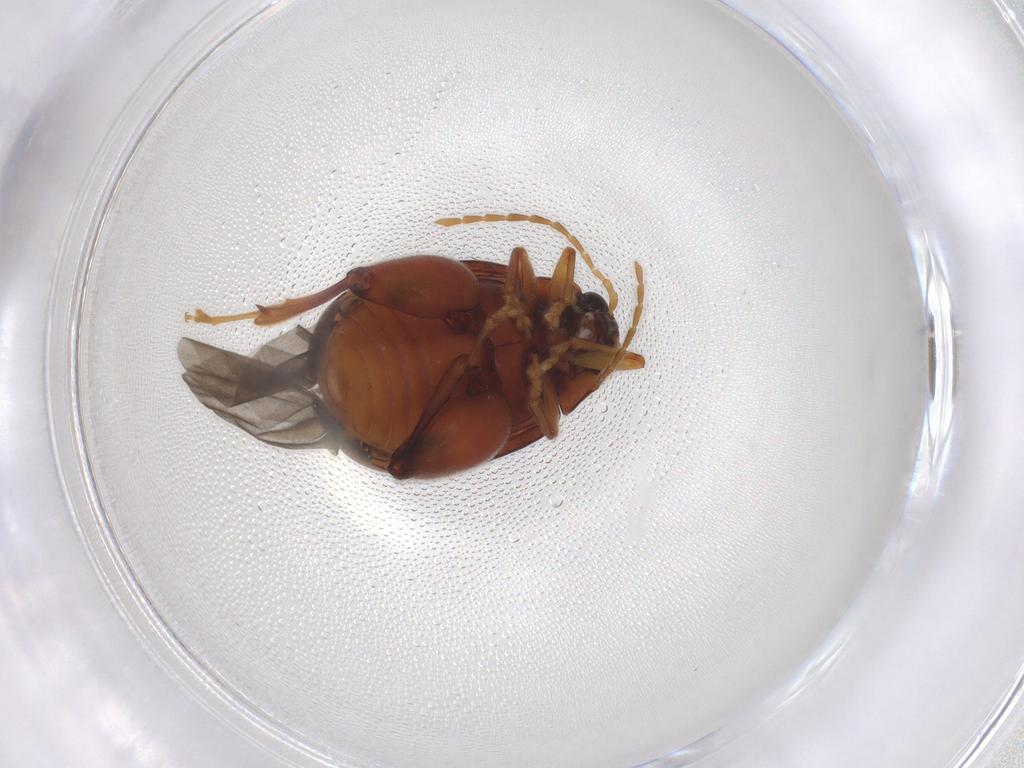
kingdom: Animalia
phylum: Arthropoda
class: Insecta
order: Coleoptera
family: Chrysomelidae
